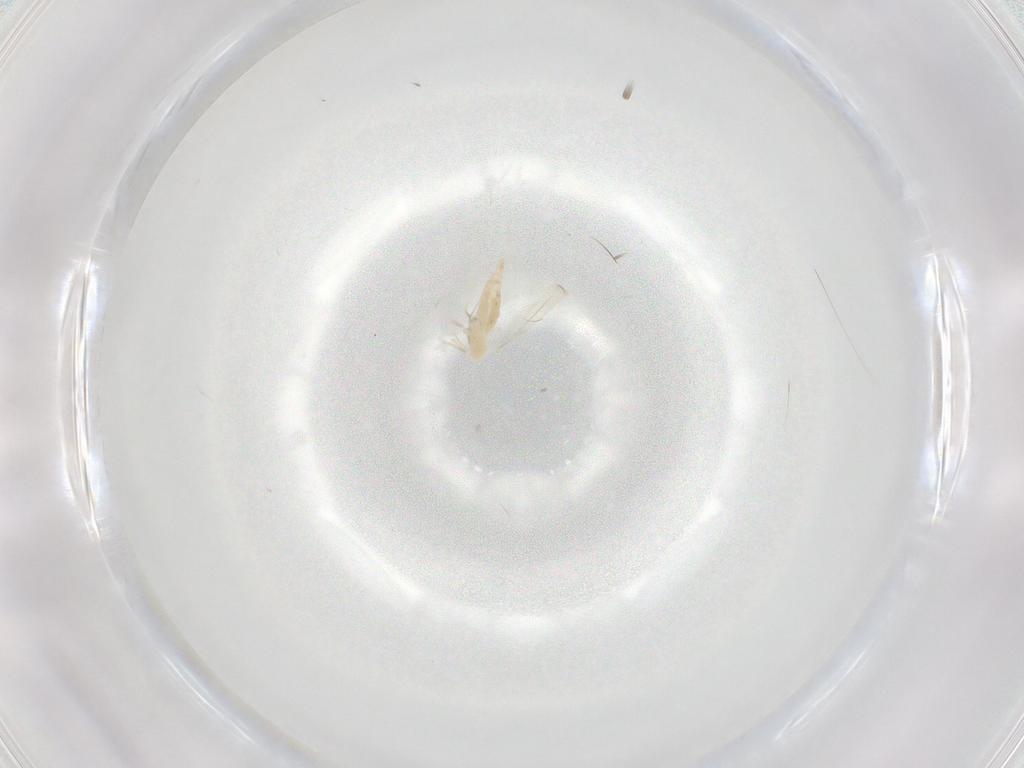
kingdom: Animalia
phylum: Arthropoda
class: Insecta
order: Diptera
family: Cecidomyiidae
